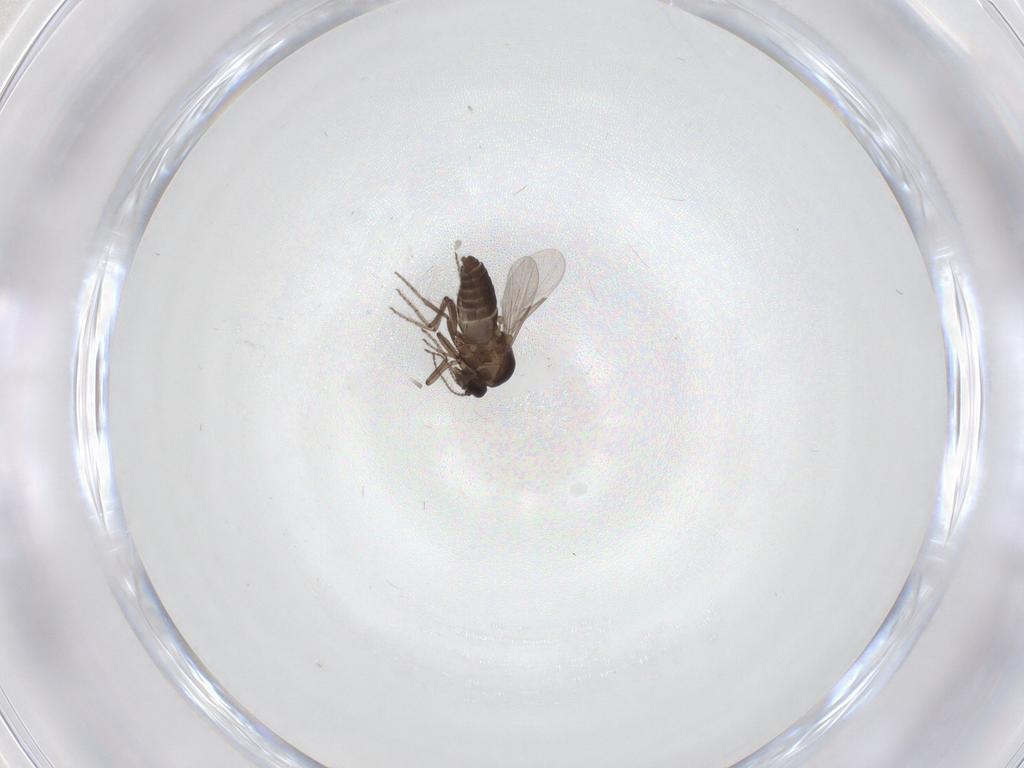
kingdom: Animalia
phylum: Arthropoda
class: Insecta
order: Diptera
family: Ceratopogonidae
